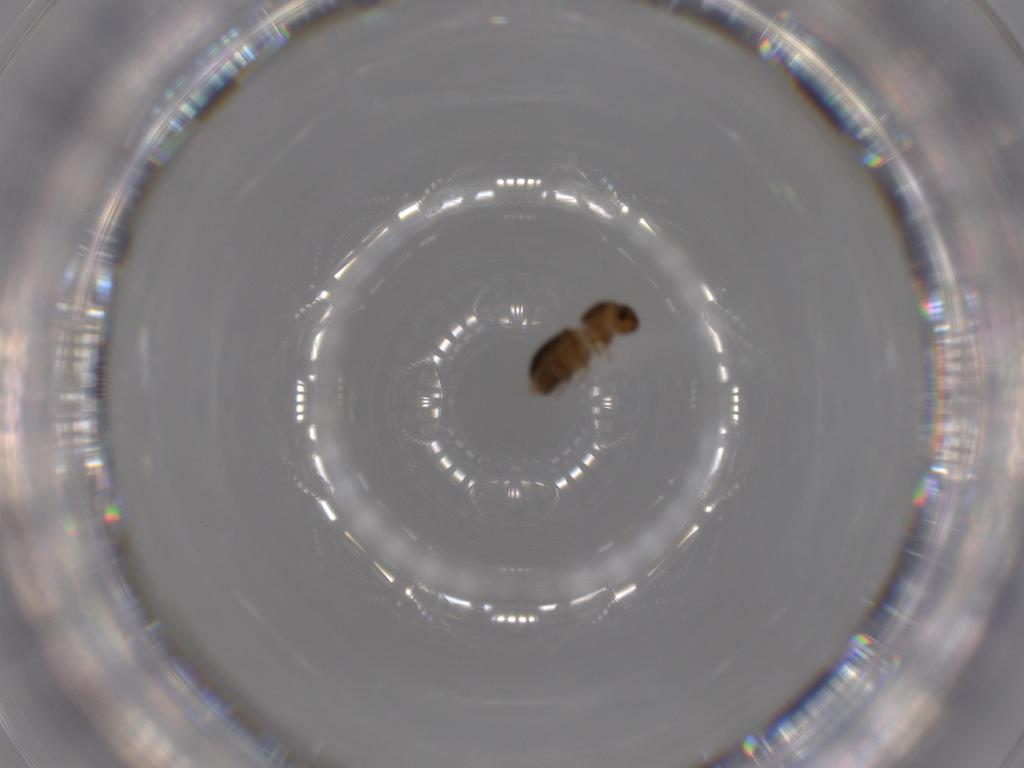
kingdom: Animalia
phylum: Arthropoda
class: Insecta
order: Coleoptera
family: Curculionidae
